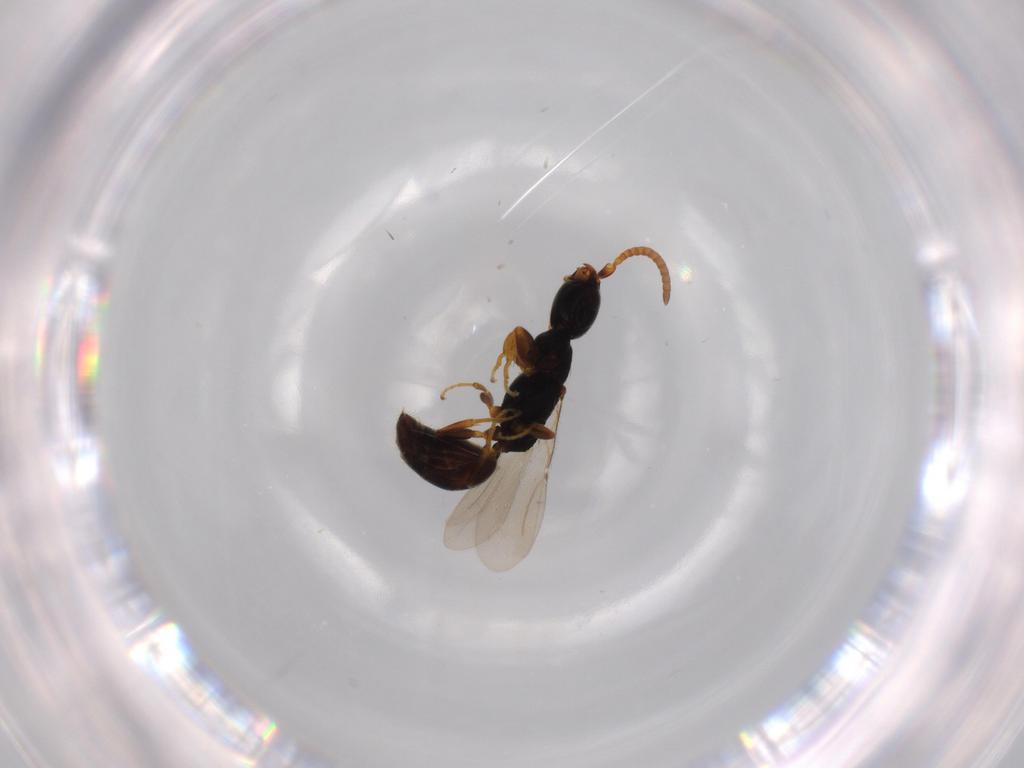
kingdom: Animalia
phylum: Arthropoda
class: Insecta
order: Hymenoptera
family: Bethylidae
